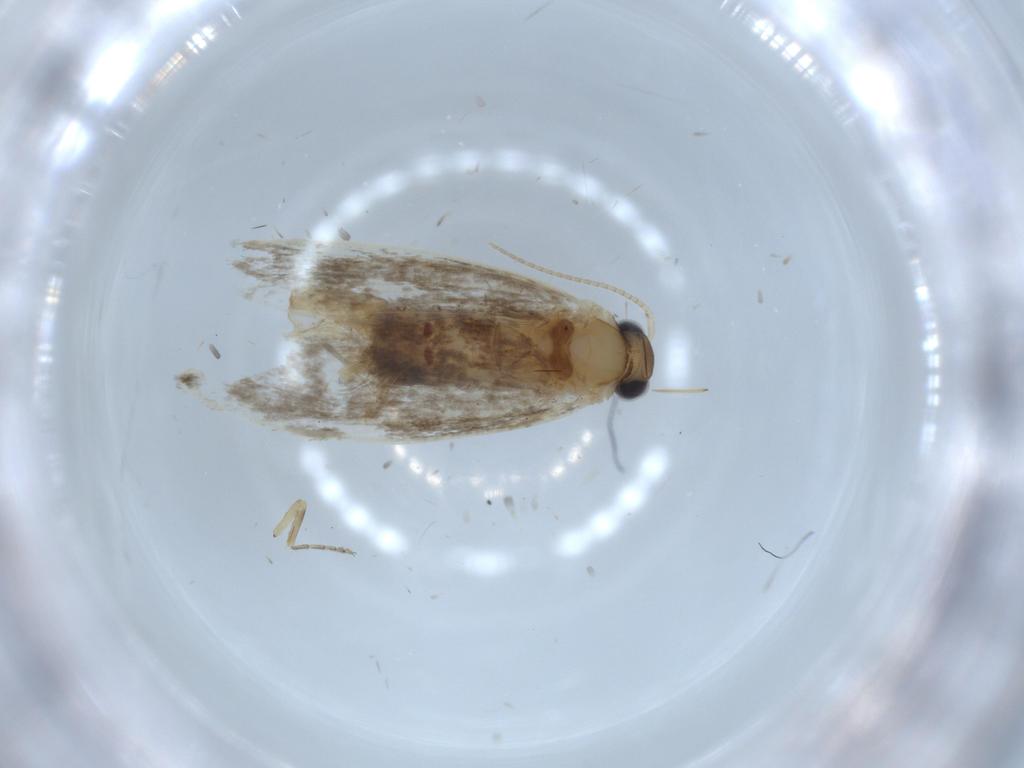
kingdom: Animalia
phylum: Arthropoda
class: Insecta
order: Lepidoptera
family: Tineidae
